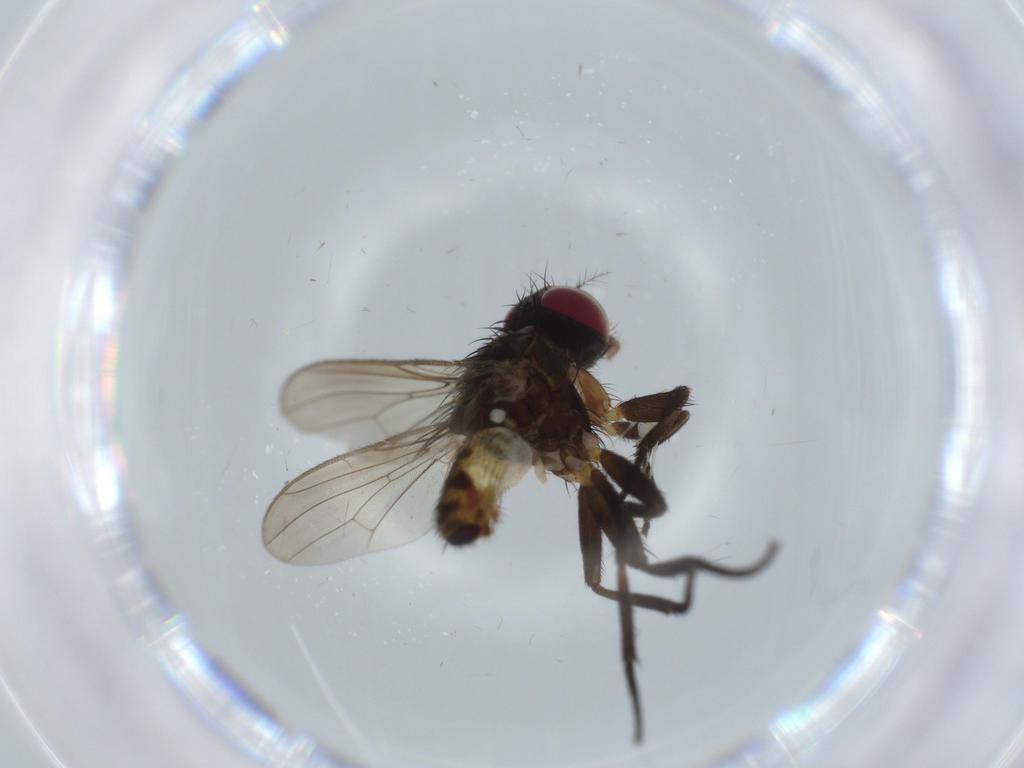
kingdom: Animalia
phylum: Arthropoda
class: Insecta
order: Diptera
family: Anthomyiidae
